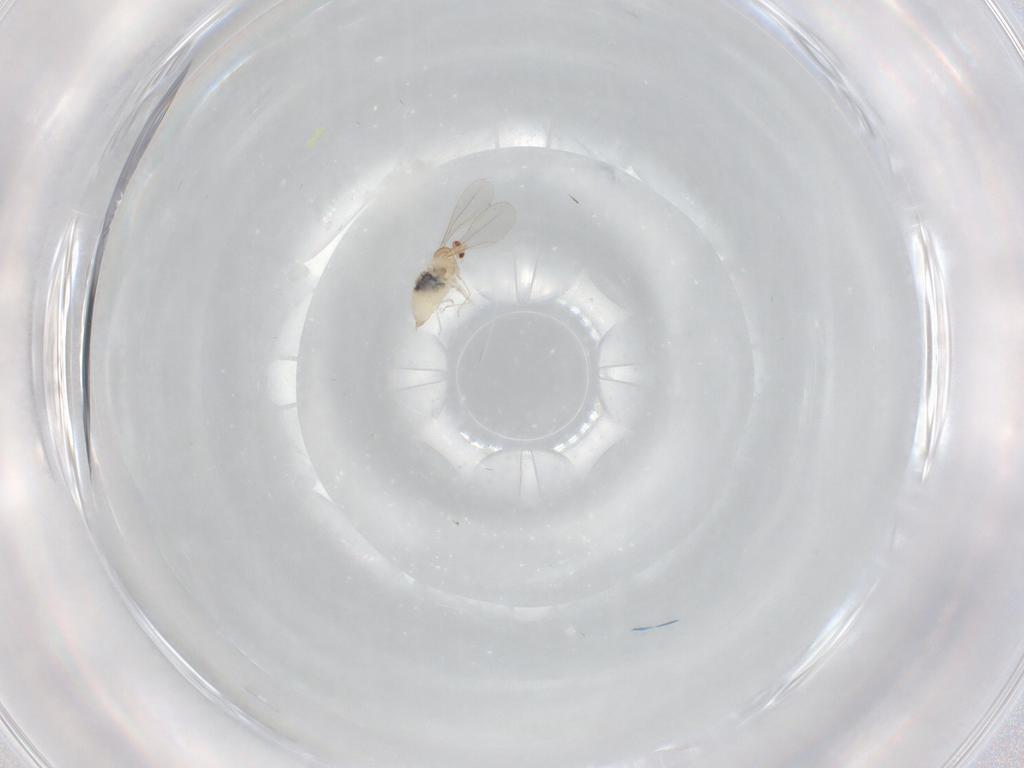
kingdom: Animalia
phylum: Arthropoda
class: Insecta
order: Diptera
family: Cecidomyiidae
